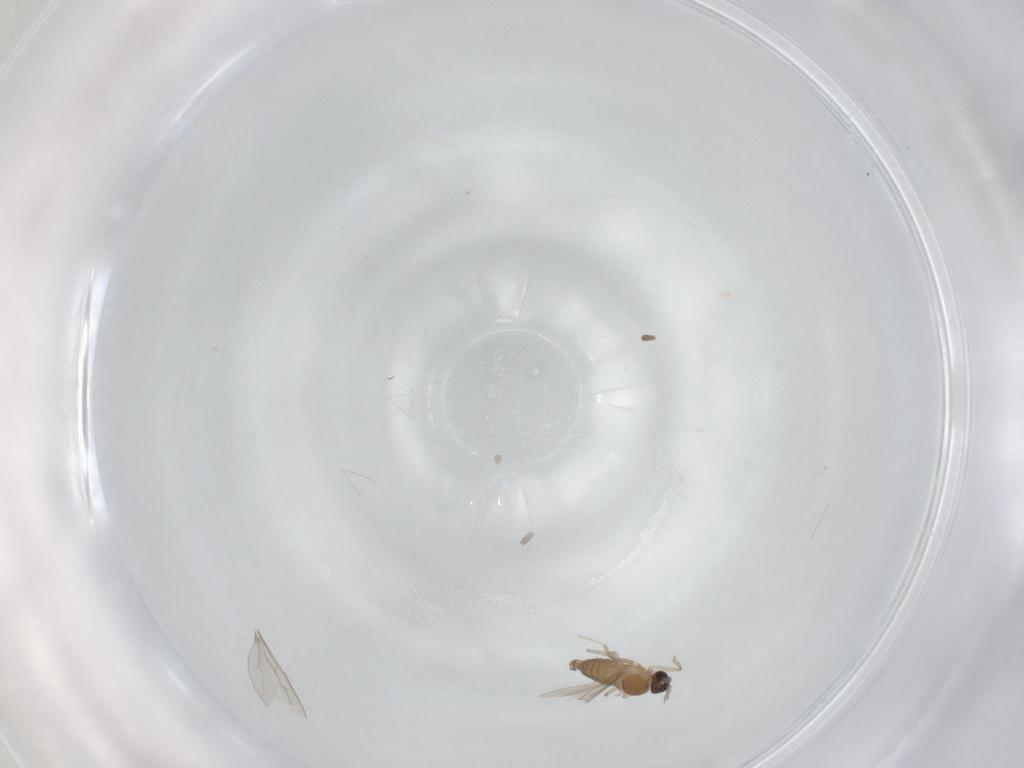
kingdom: Animalia
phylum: Arthropoda
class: Insecta
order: Diptera
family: Cecidomyiidae
